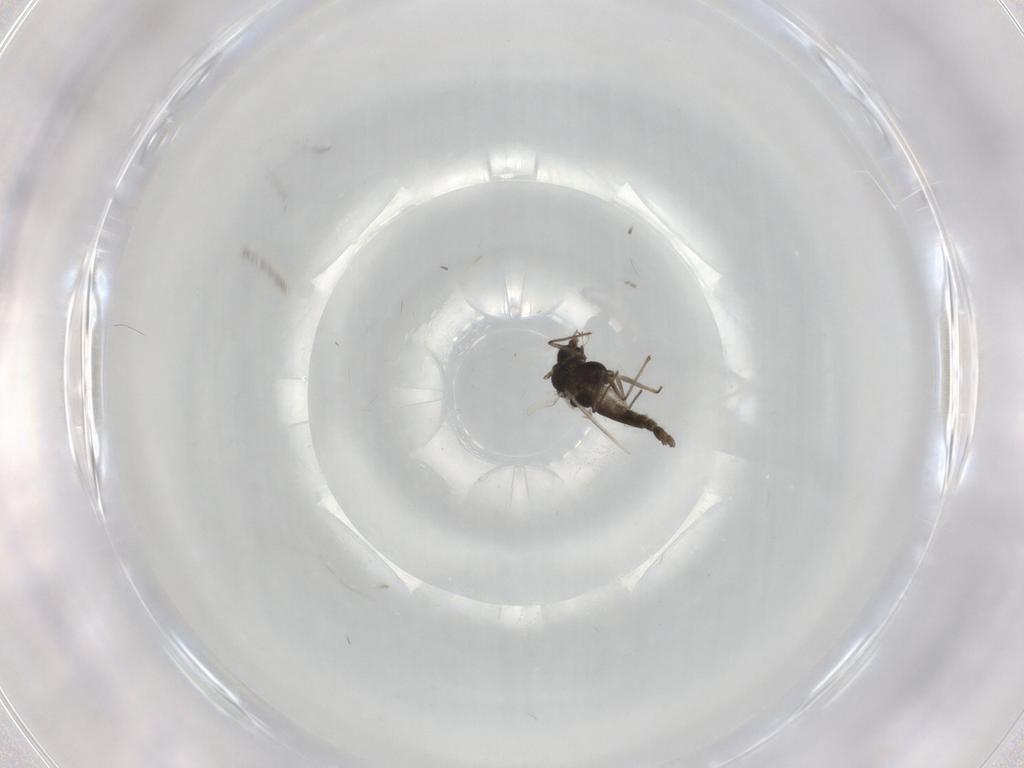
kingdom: Animalia
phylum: Arthropoda
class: Insecta
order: Diptera
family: Chironomidae
